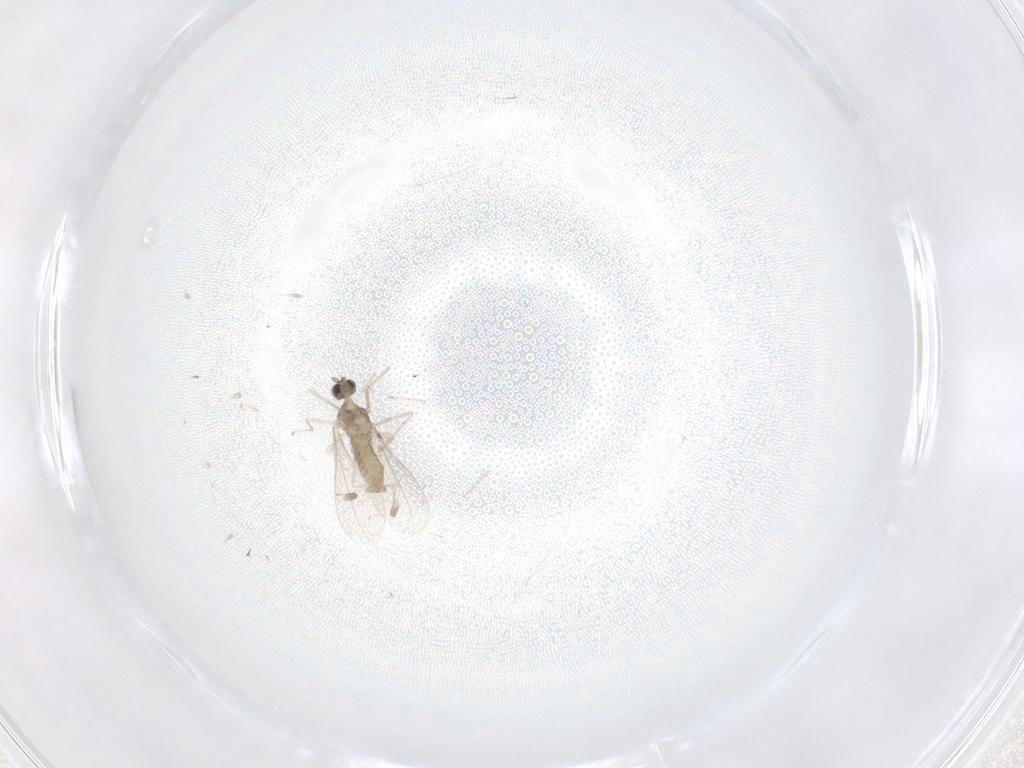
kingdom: Animalia
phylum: Arthropoda
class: Insecta
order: Diptera
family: Cecidomyiidae
